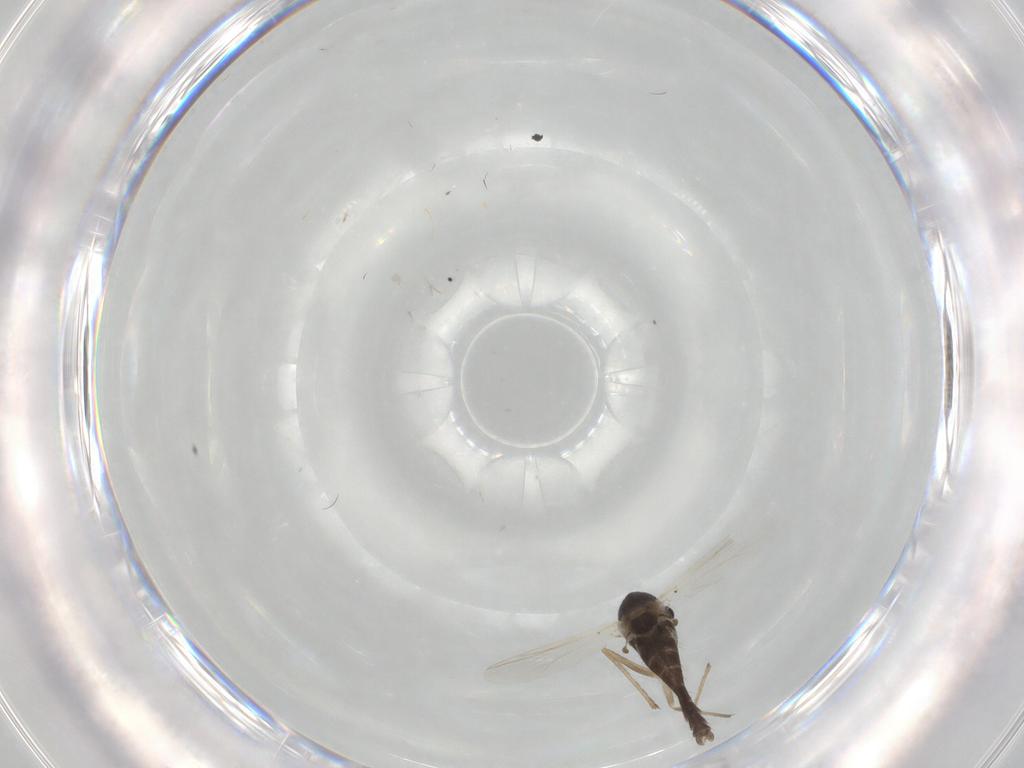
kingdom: Animalia
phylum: Arthropoda
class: Insecta
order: Diptera
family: Chironomidae
